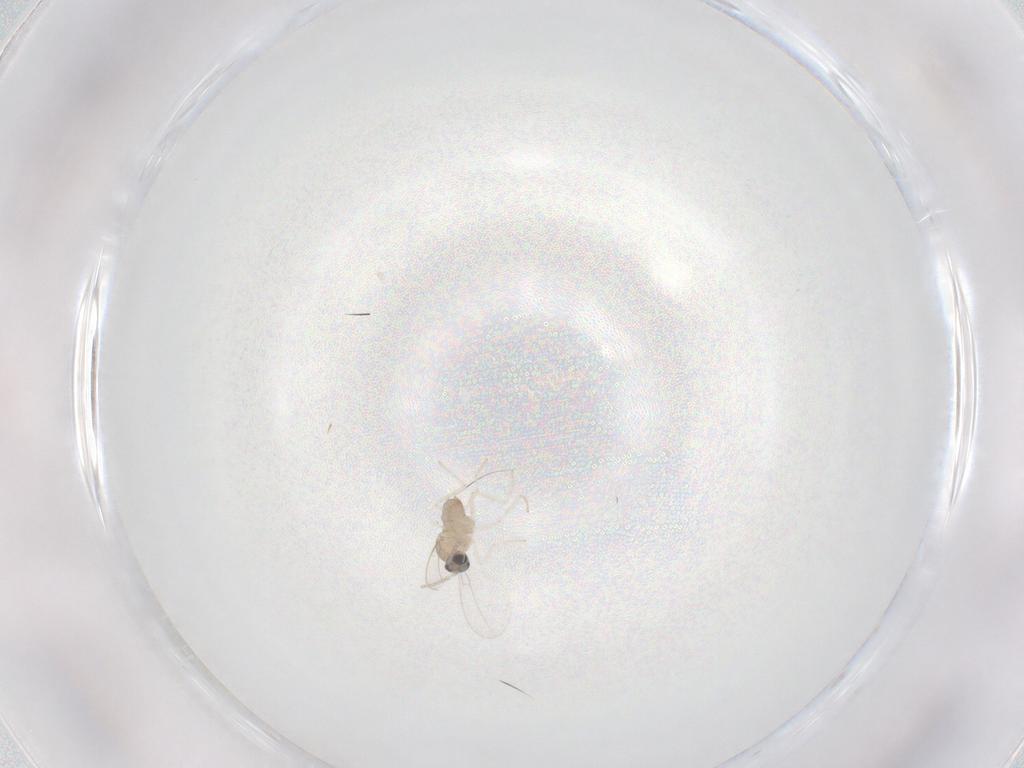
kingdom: Animalia
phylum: Arthropoda
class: Insecta
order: Diptera
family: Cecidomyiidae
